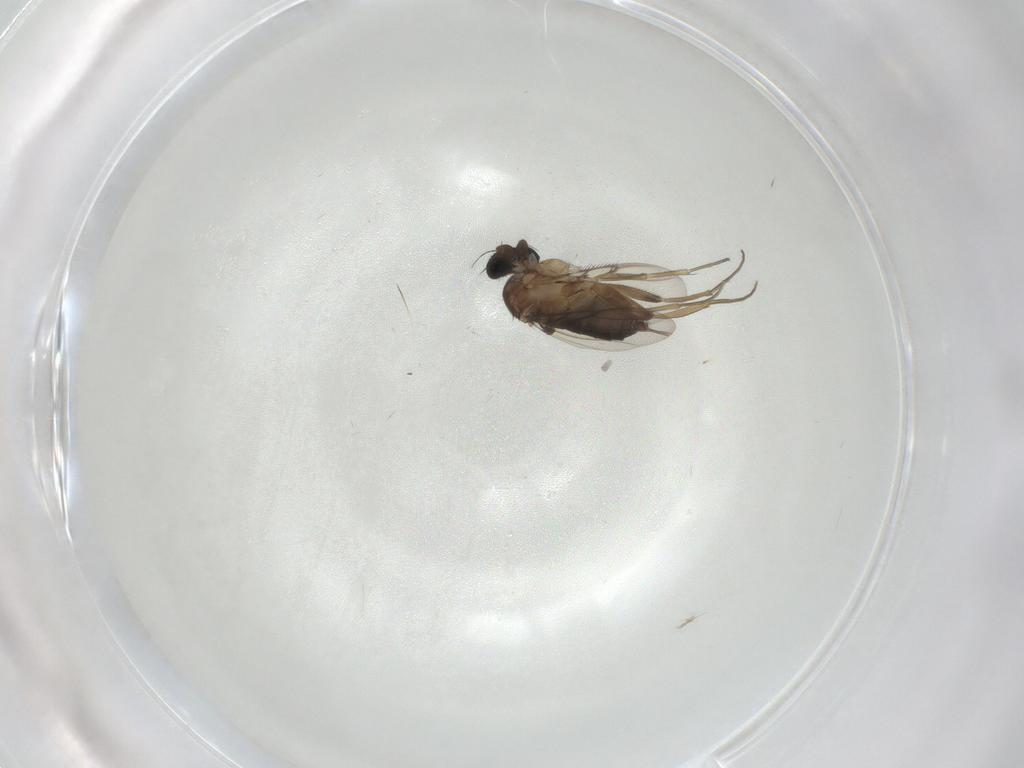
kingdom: Animalia
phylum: Arthropoda
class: Insecta
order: Diptera
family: Phoridae
